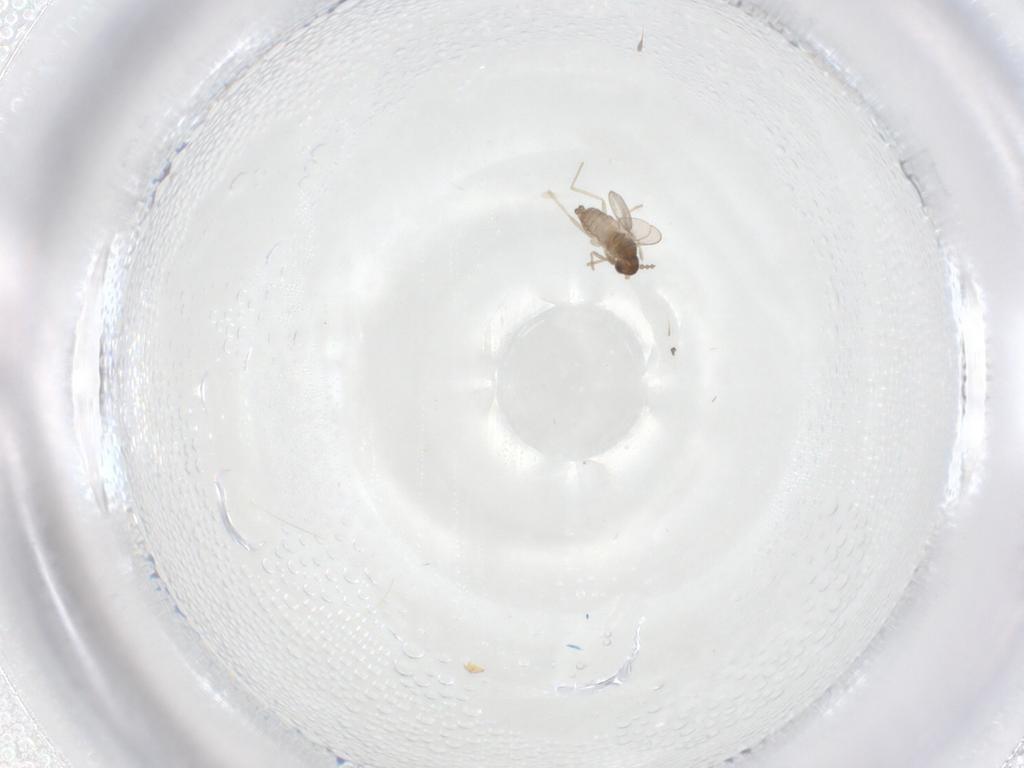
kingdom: Animalia
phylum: Arthropoda
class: Insecta
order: Diptera
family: Cecidomyiidae
